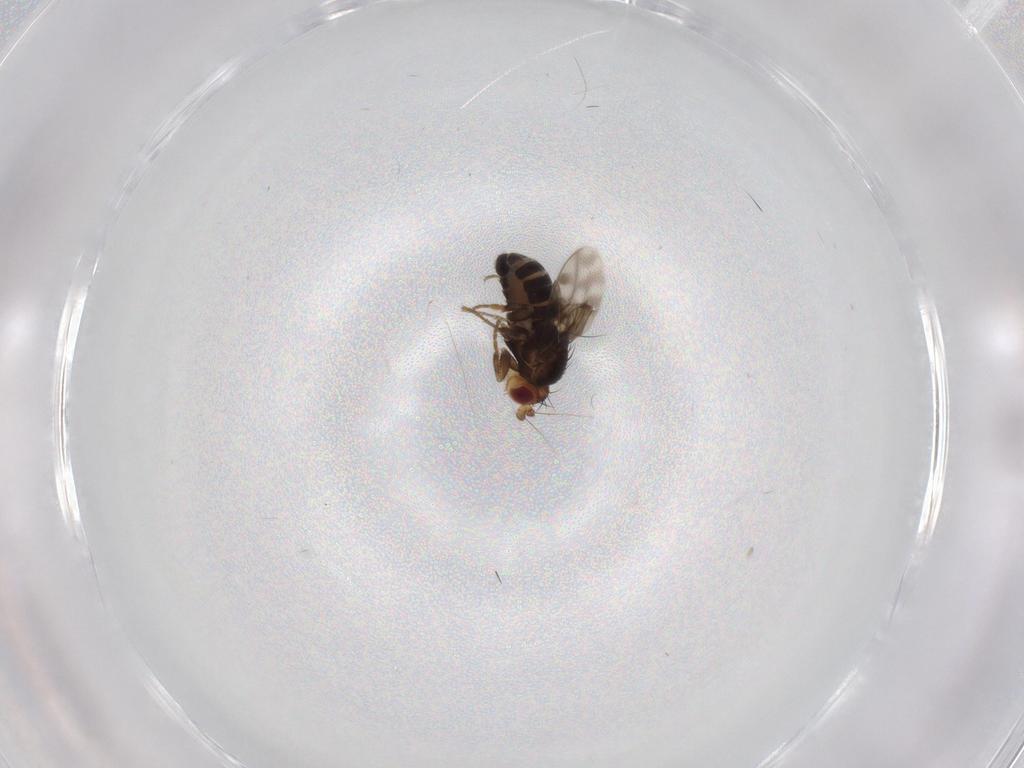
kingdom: Animalia
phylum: Arthropoda
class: Insecta
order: Diptera
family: Sphaeroceridae
